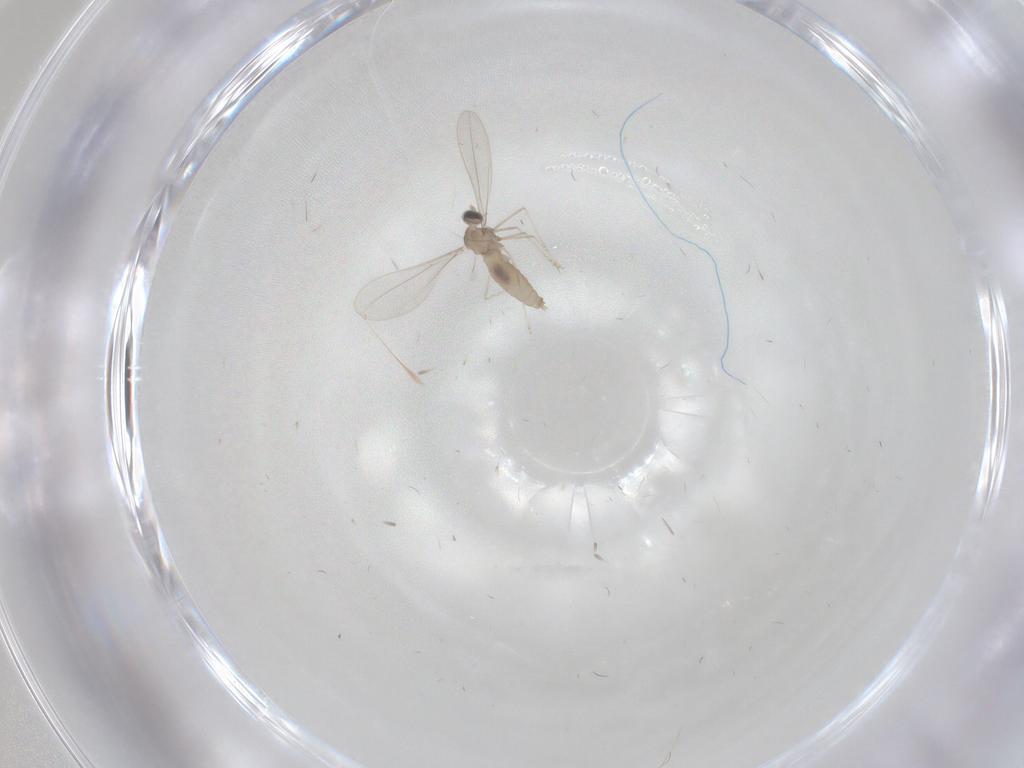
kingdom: Animalia
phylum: Arthropoda
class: Insecta
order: Diptera
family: Cecidomyiidae
